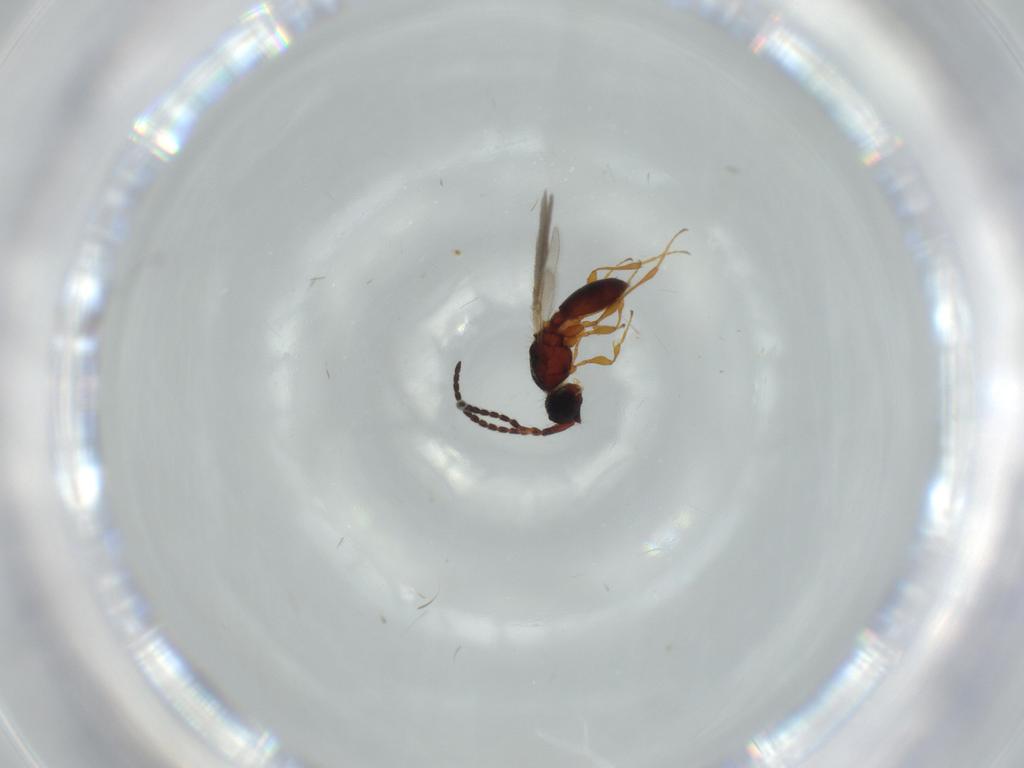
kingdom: Animalia
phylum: Arthropoda
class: Insecta
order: Hymenoptera
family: Diapriidae
